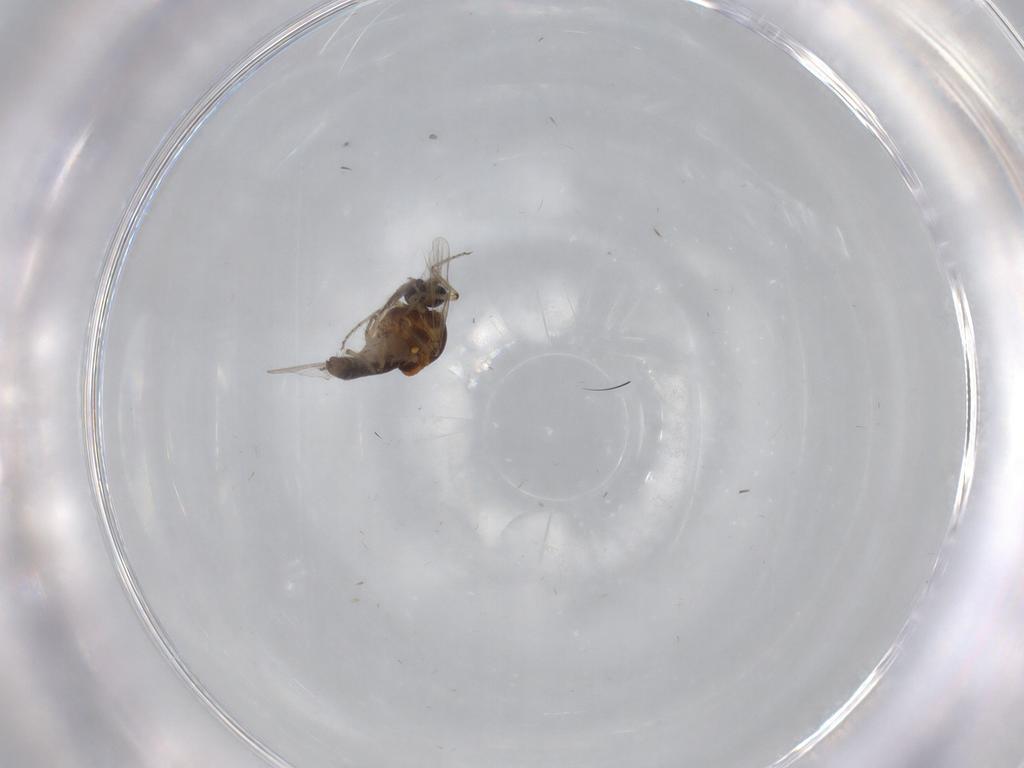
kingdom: Animalia
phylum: Arthropoda
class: Insecta
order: Diptera
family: Ceratopogonidae
